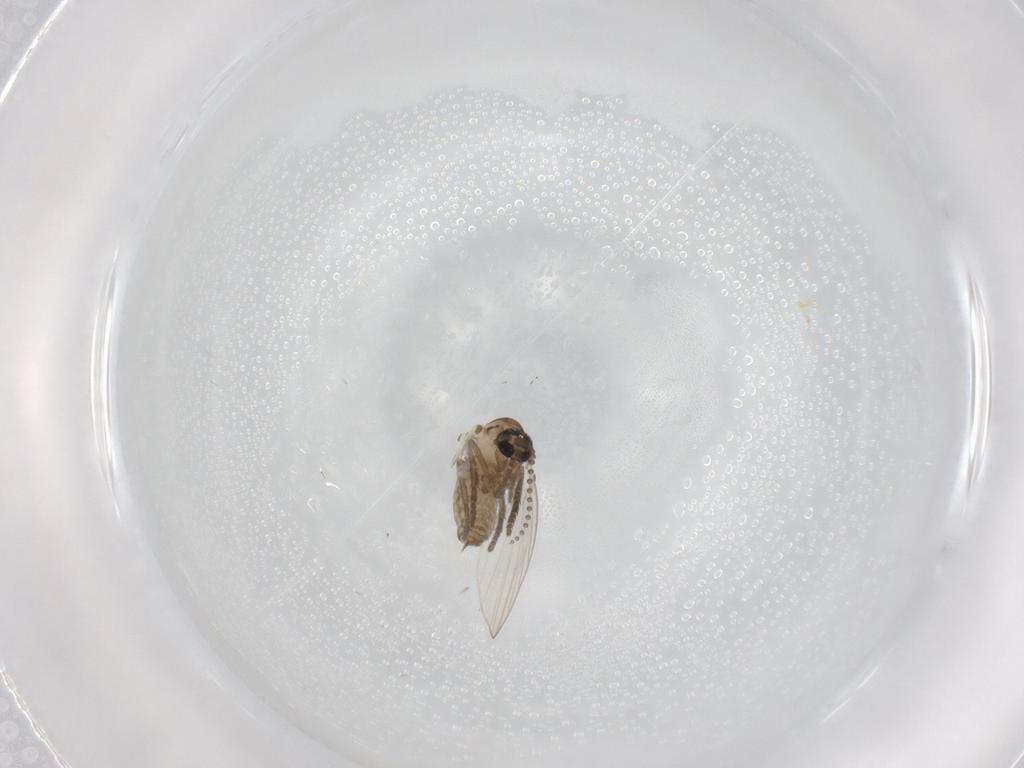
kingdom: Animalia
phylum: Arthropoda
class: Insecta
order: Diptera
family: Psychodidae
